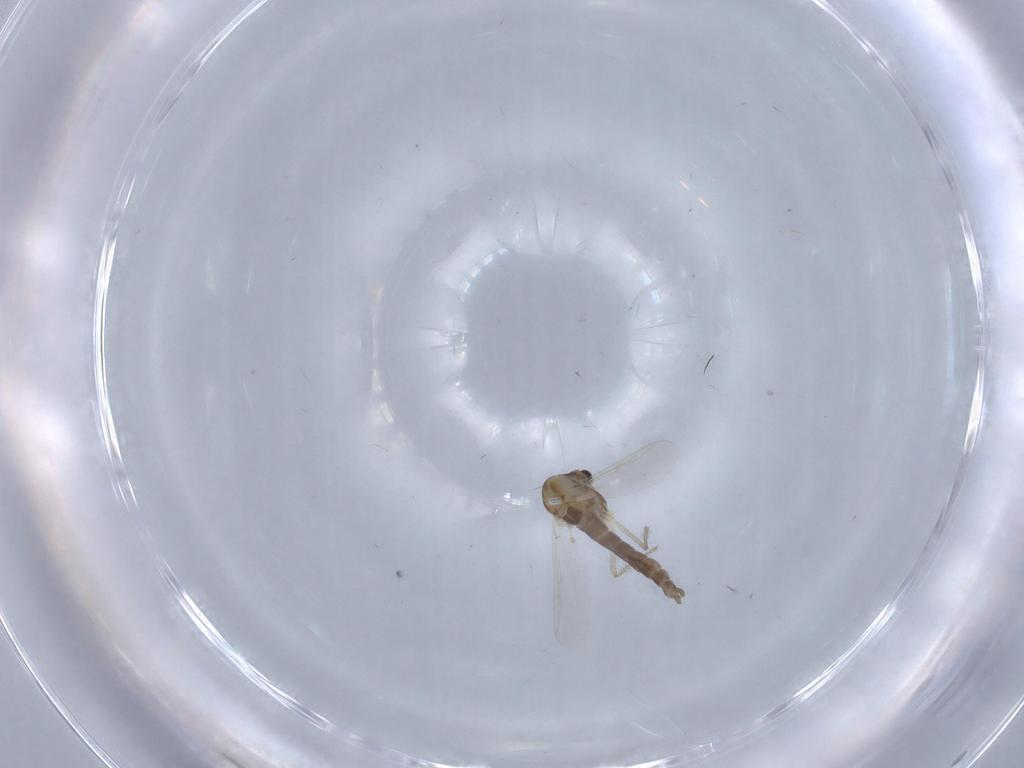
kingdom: Animalia
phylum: Arthropoda
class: Insecta
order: Diptera
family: Chironomidae
